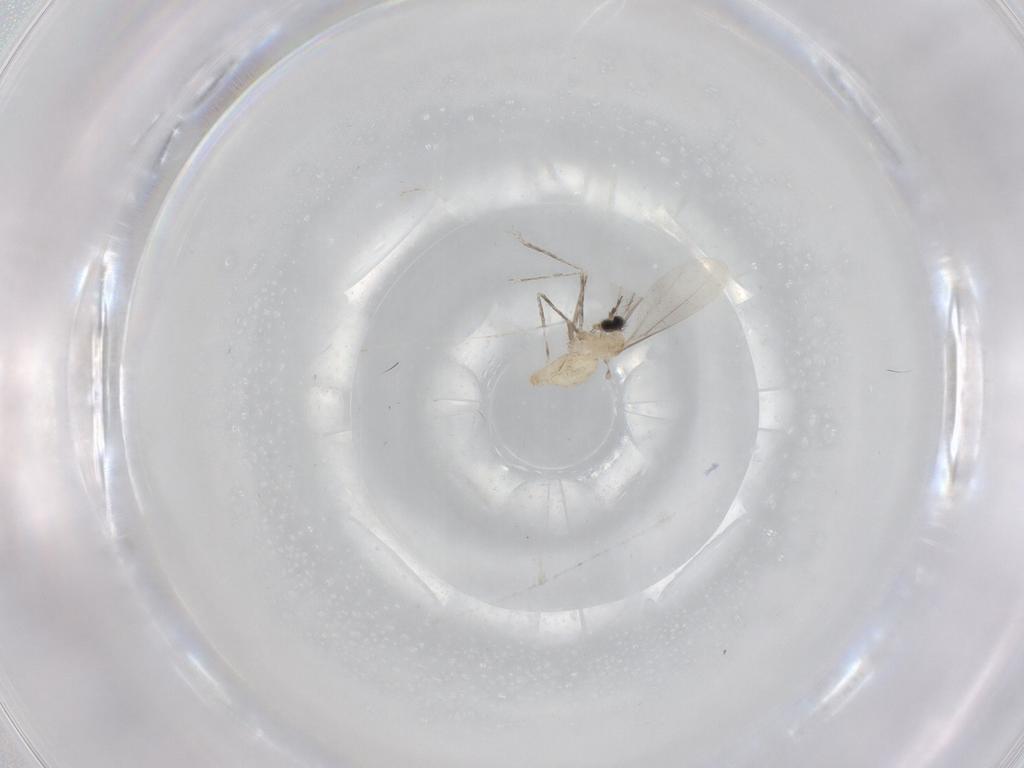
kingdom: Animalia
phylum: Arthropoda
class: Insecta
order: Diptera
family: Cecidomyiidae
